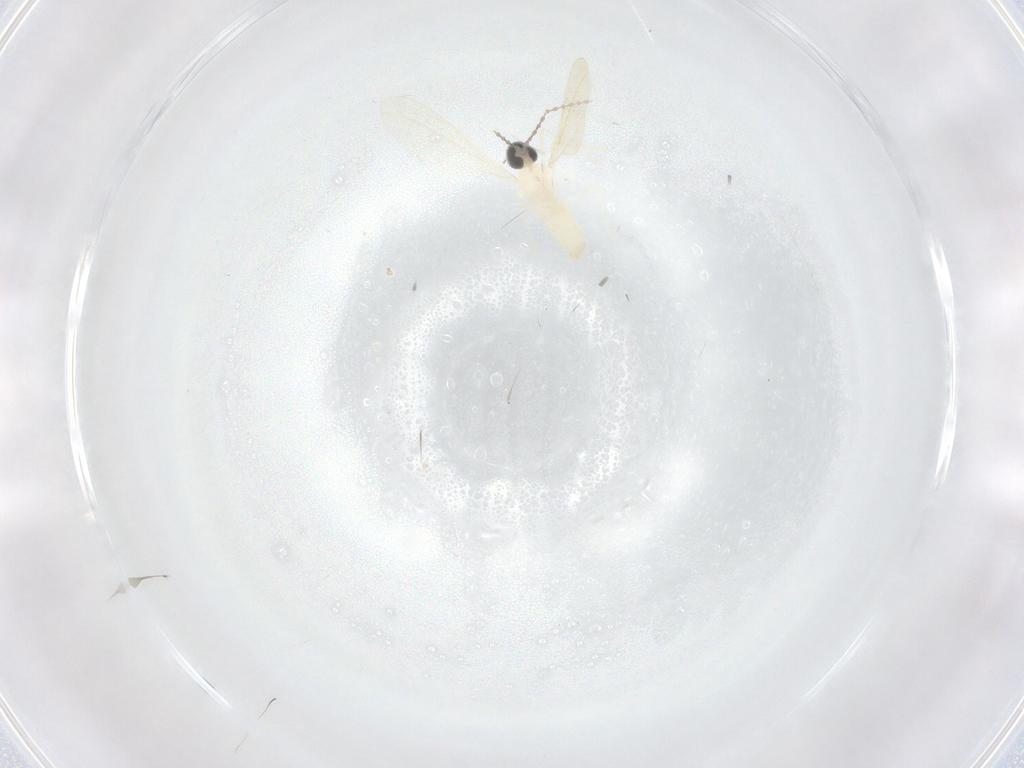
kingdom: Animalia
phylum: Arthropoda
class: Insecta
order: Diptera
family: Cecidomyiidae
